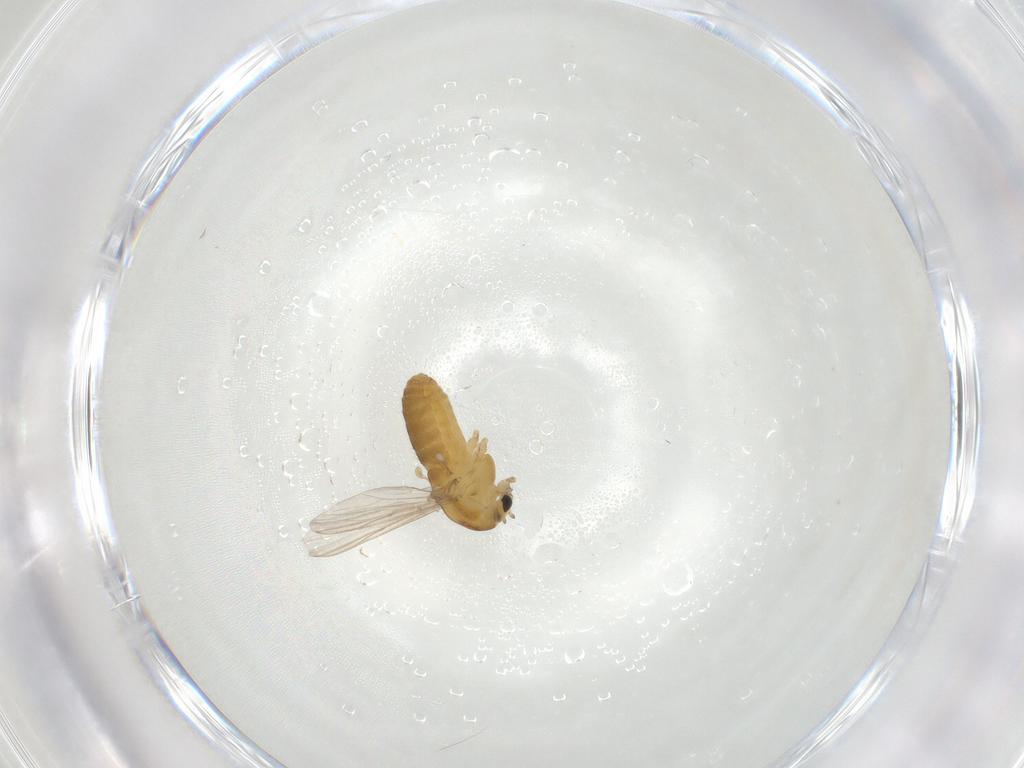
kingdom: Animalia
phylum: Arthropoda
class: Insecta
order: Diptera
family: Chironomidae
